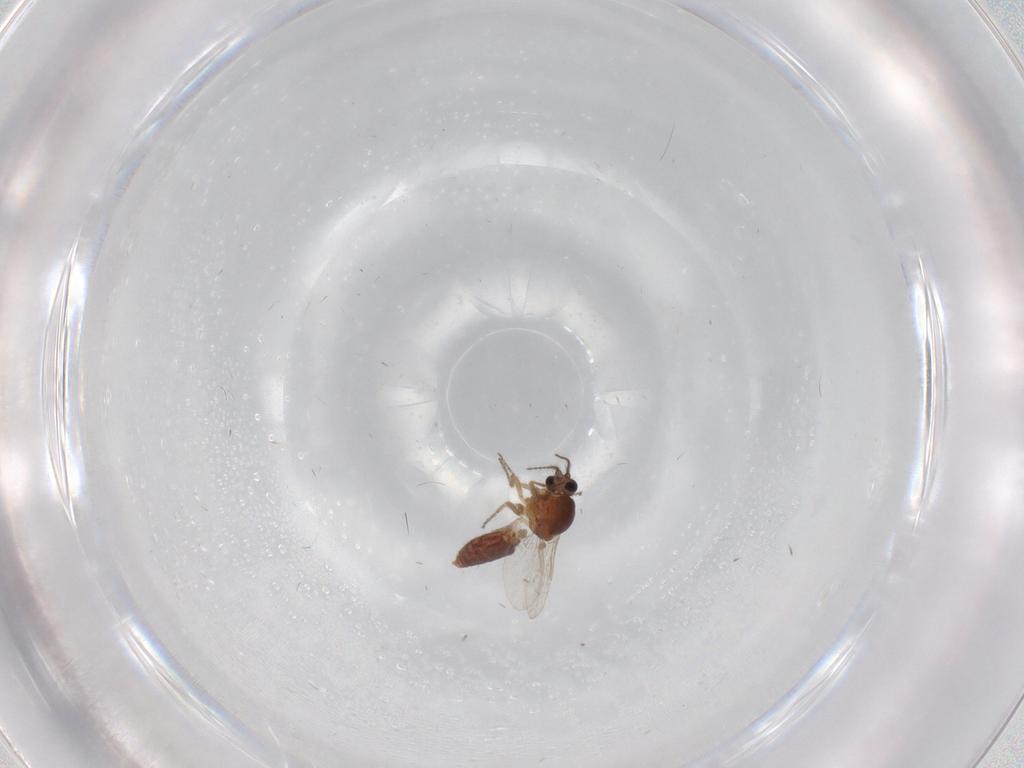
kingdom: Animalia
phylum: Arthropoda
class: Insecta
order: Diptera
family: Ceratopogonidae
